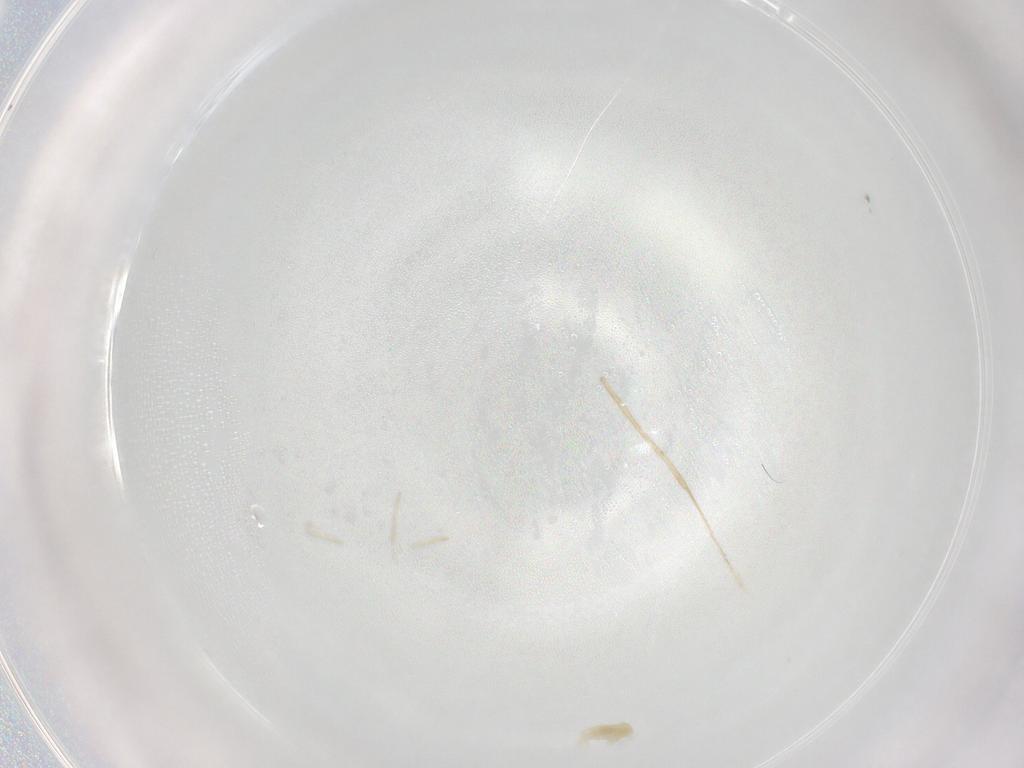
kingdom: Animalia
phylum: Arthropoda
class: Arachnida
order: Trombidiformes
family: Eupodidae
